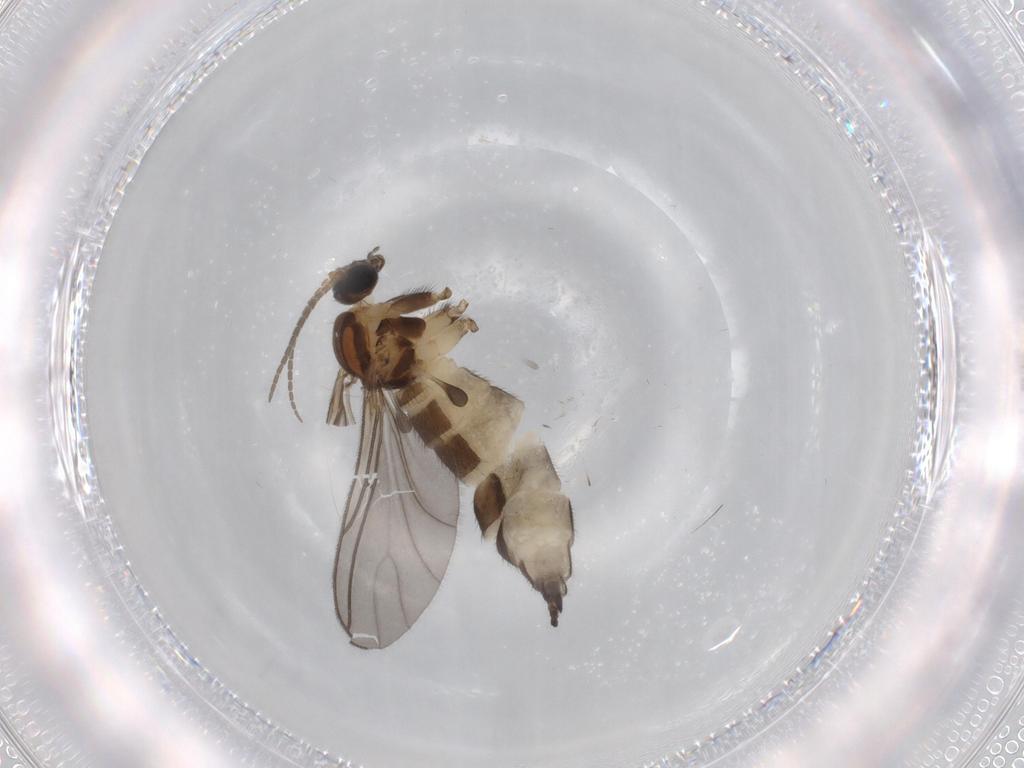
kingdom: Animalia
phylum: Arthropoda
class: Insecta
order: Diptera
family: Sciaridae
